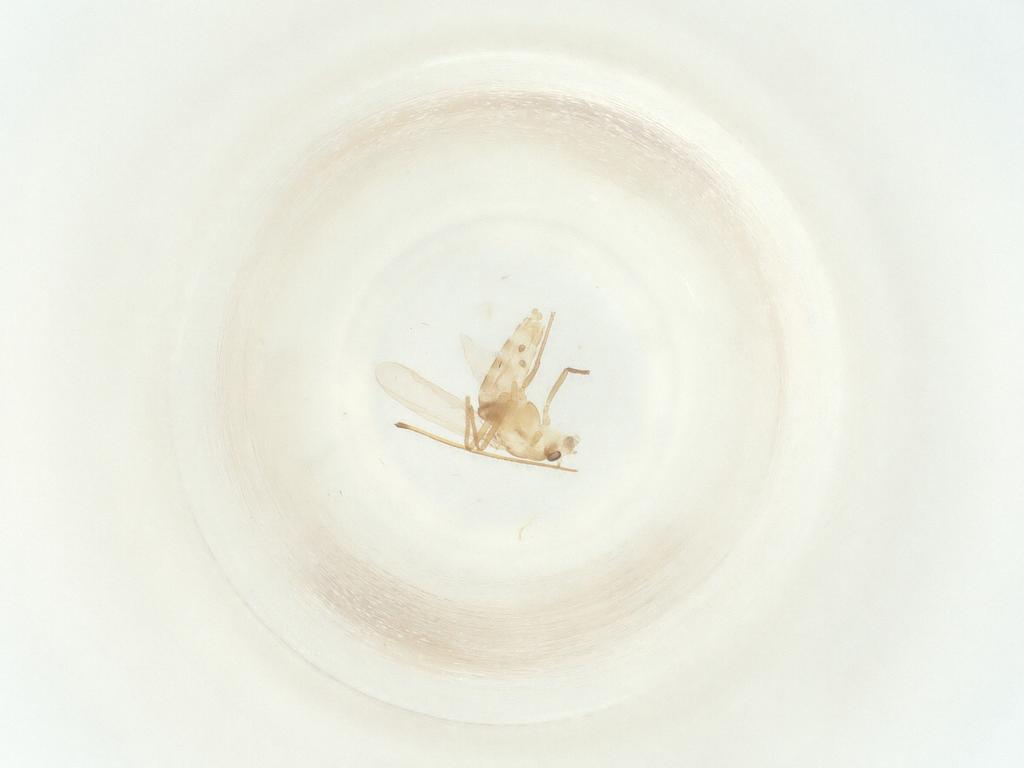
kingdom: Animalia
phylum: Arthropoda
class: Insecta
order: Diptera
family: Chironomidae
